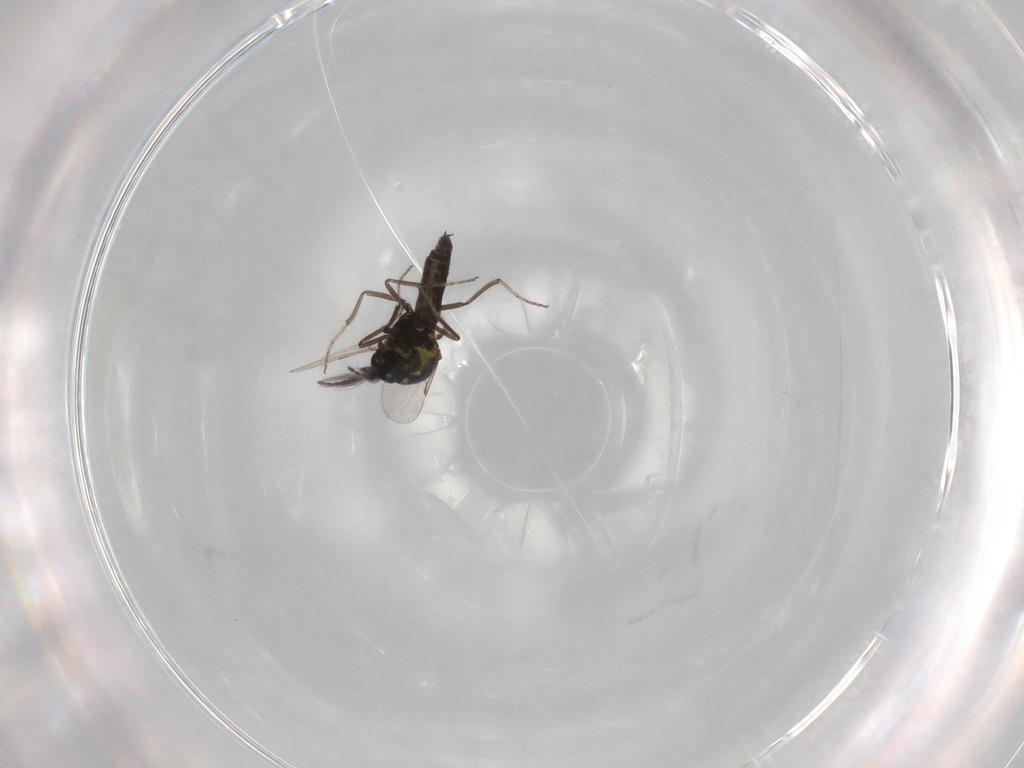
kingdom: Animalia
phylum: Arthropoda
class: Insecta
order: Diptera
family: Ceratopogonidae
